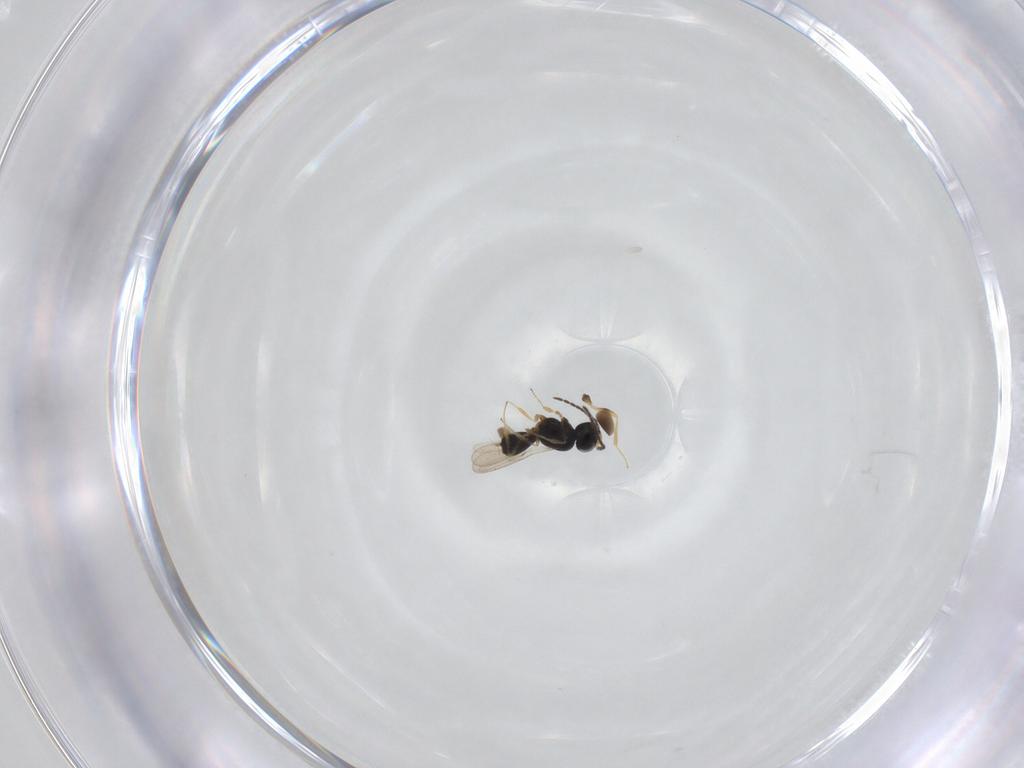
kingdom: Animalia
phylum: Arthropoda
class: Insecta
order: Hymenoptera
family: Scelionidae
